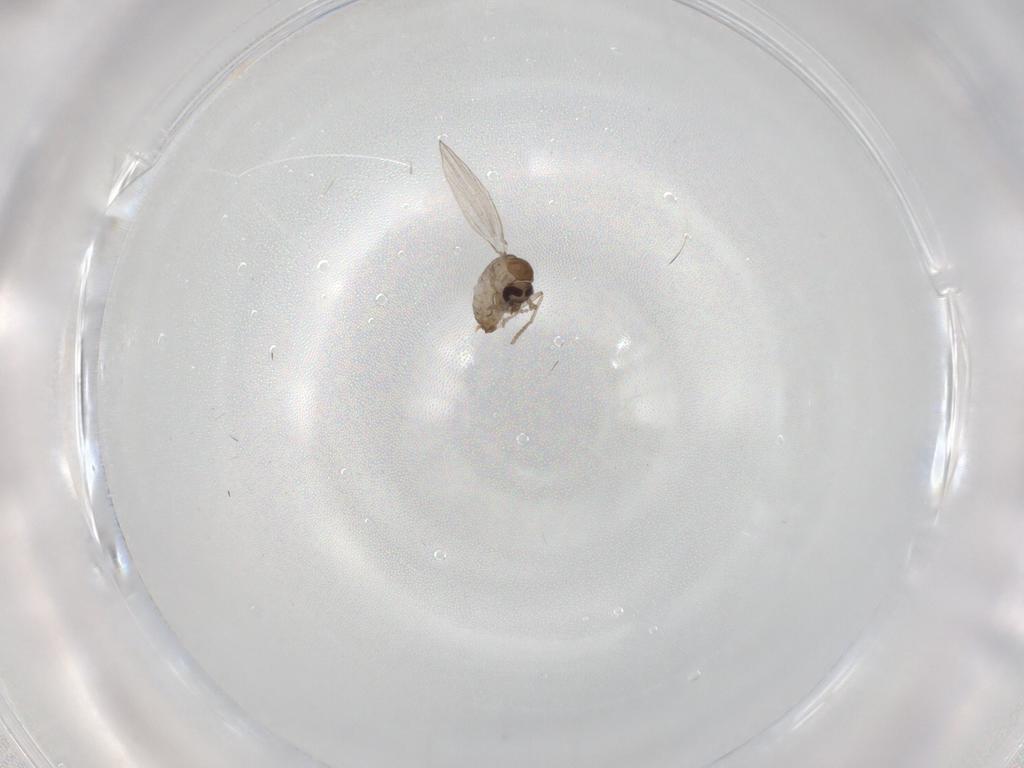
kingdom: Animalia
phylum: Arthropoda
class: Insecta
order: Diptera
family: Psychodidae
